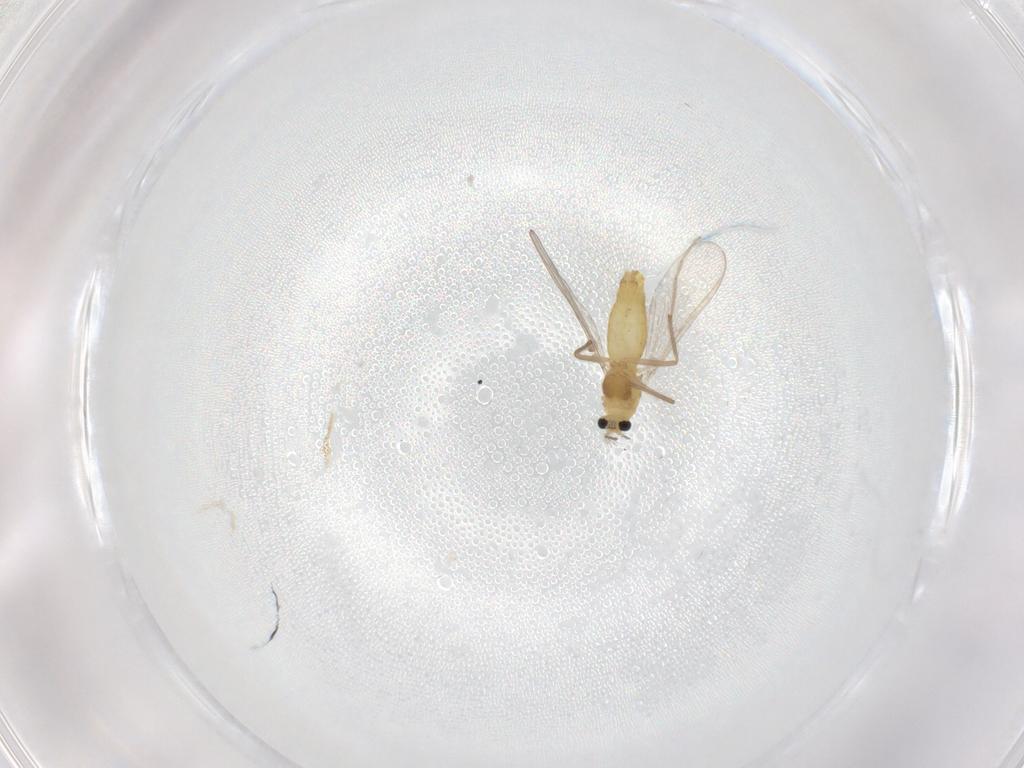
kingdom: Animalia
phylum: Arthropoda
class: Insecta
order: Diptera
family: Chironomidae
